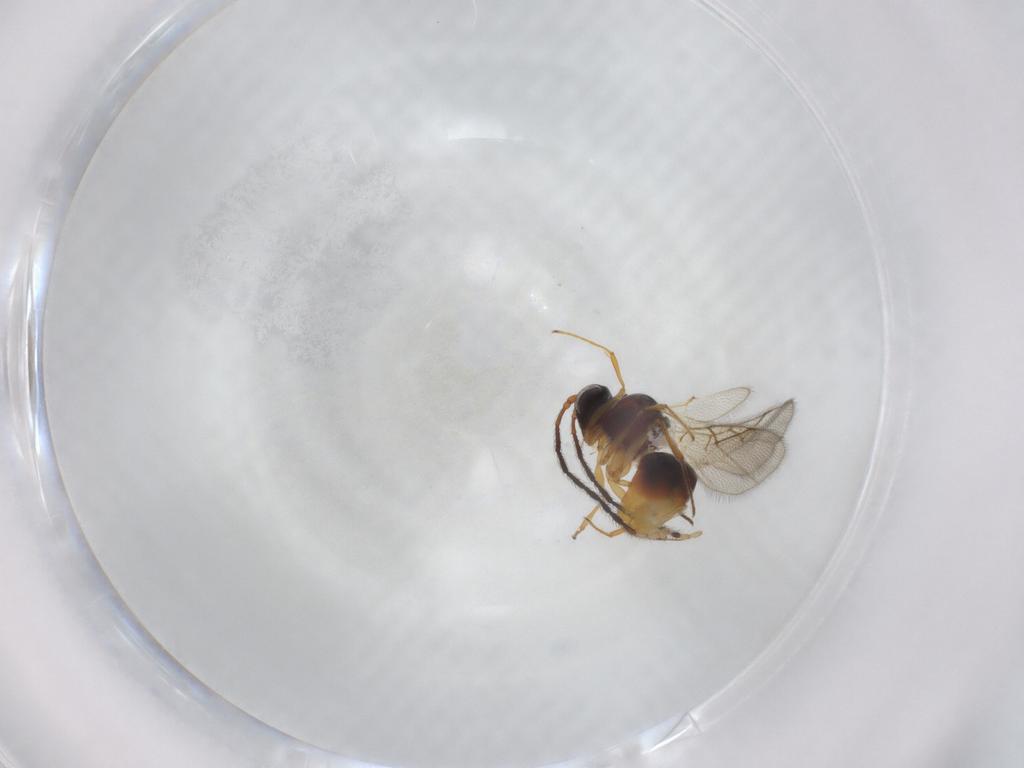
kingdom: Animalia
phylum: Arthropoda
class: Insecta
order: Hymenoptera
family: Figitidae
